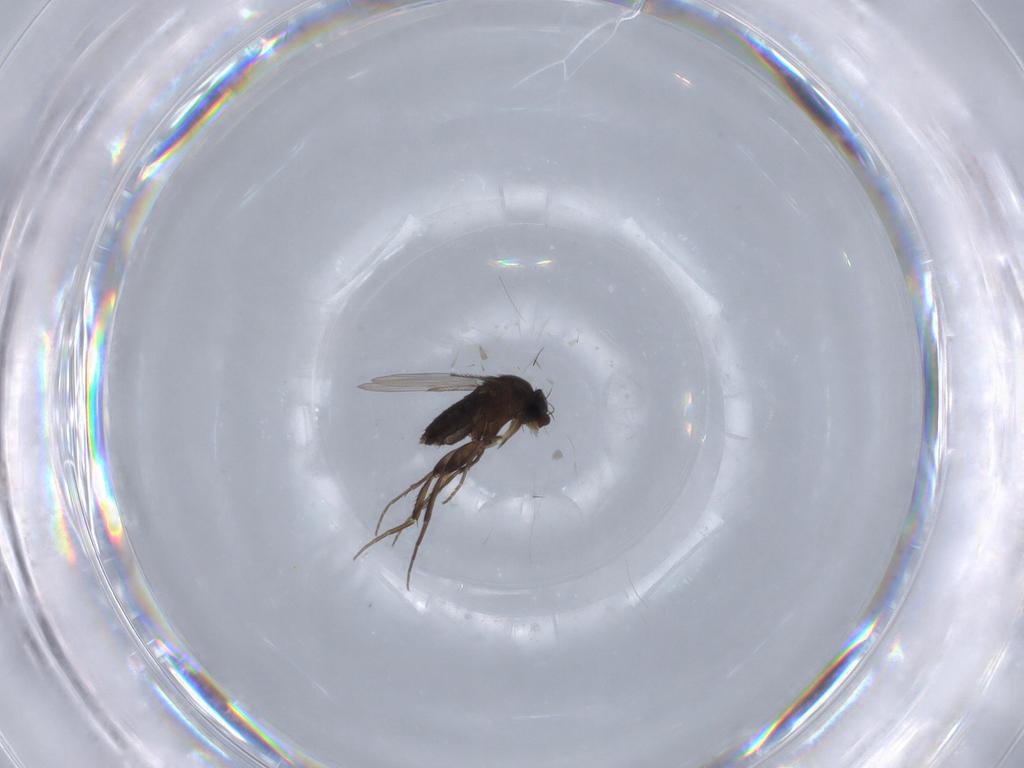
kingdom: Animalia
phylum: Arthropoda
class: Insecta
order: Diptera
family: Phoridae
